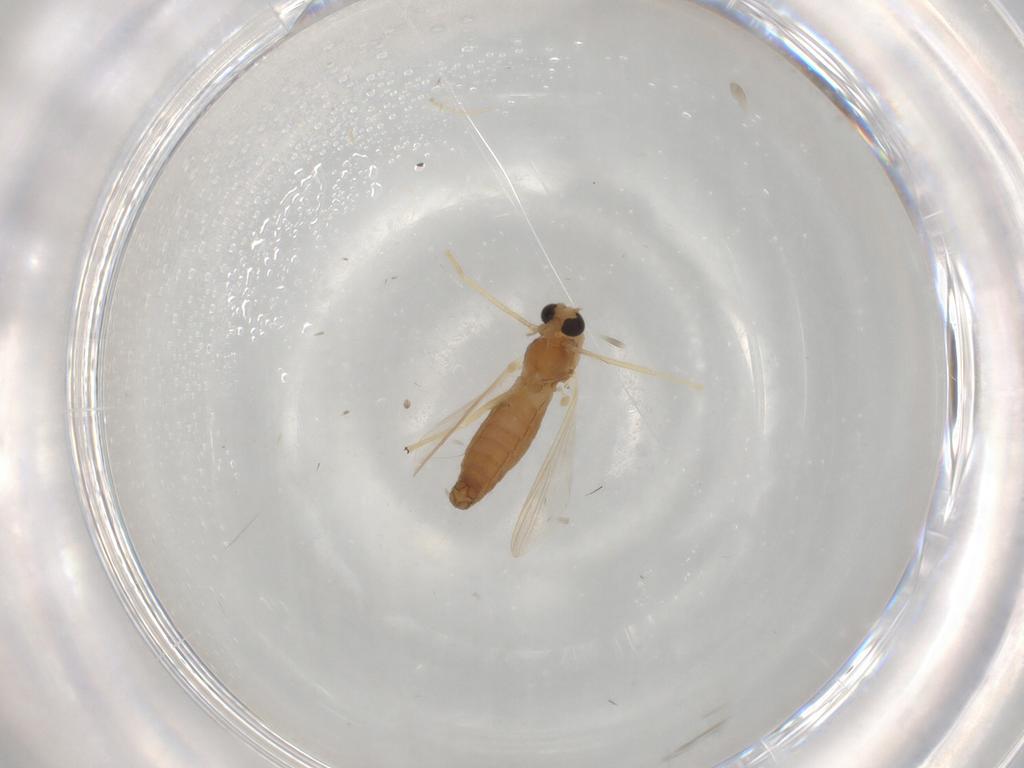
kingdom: Animalia
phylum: Arthropoda
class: Insecta
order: Diptera
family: Chironomidae
